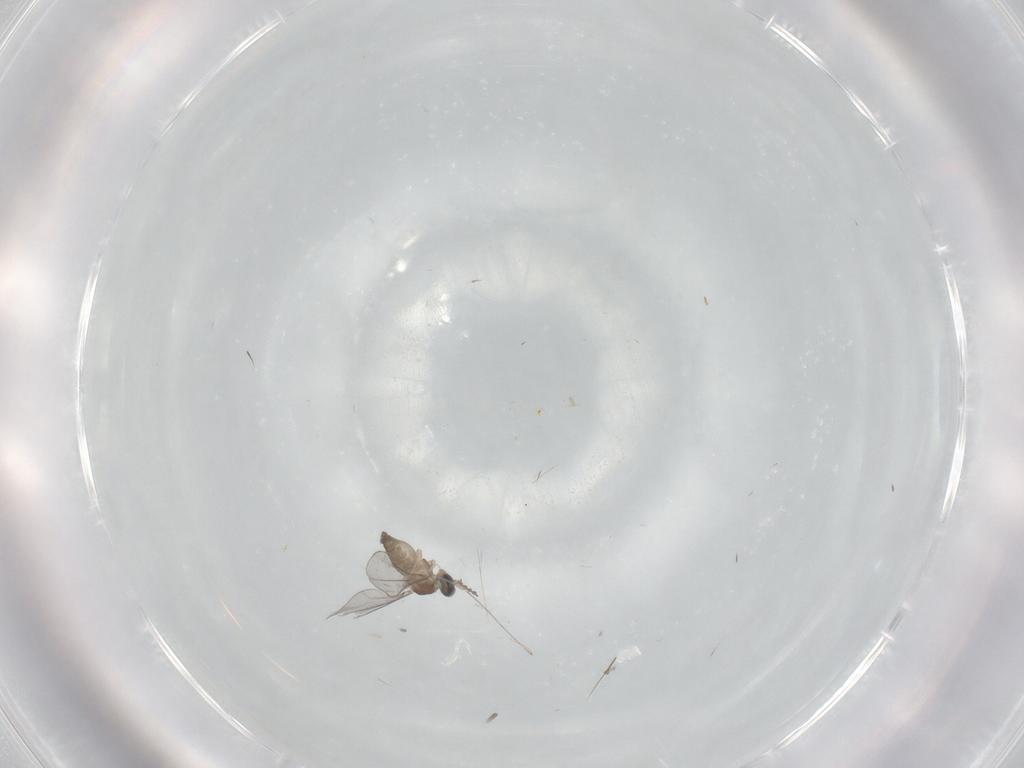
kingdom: Animalia
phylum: Arthropoda
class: Insecta
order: Diptera
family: Cecidomyiidae
